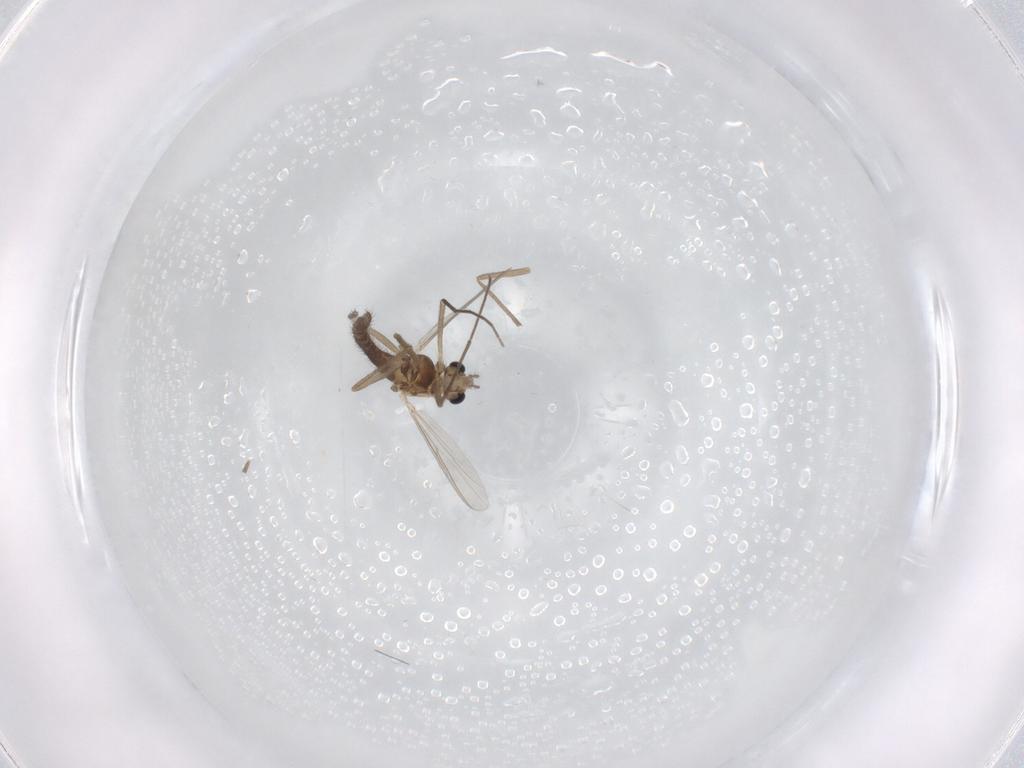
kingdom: Animalia
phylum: Arthropoda
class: Insecta
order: Diptera
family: Chironomidae
